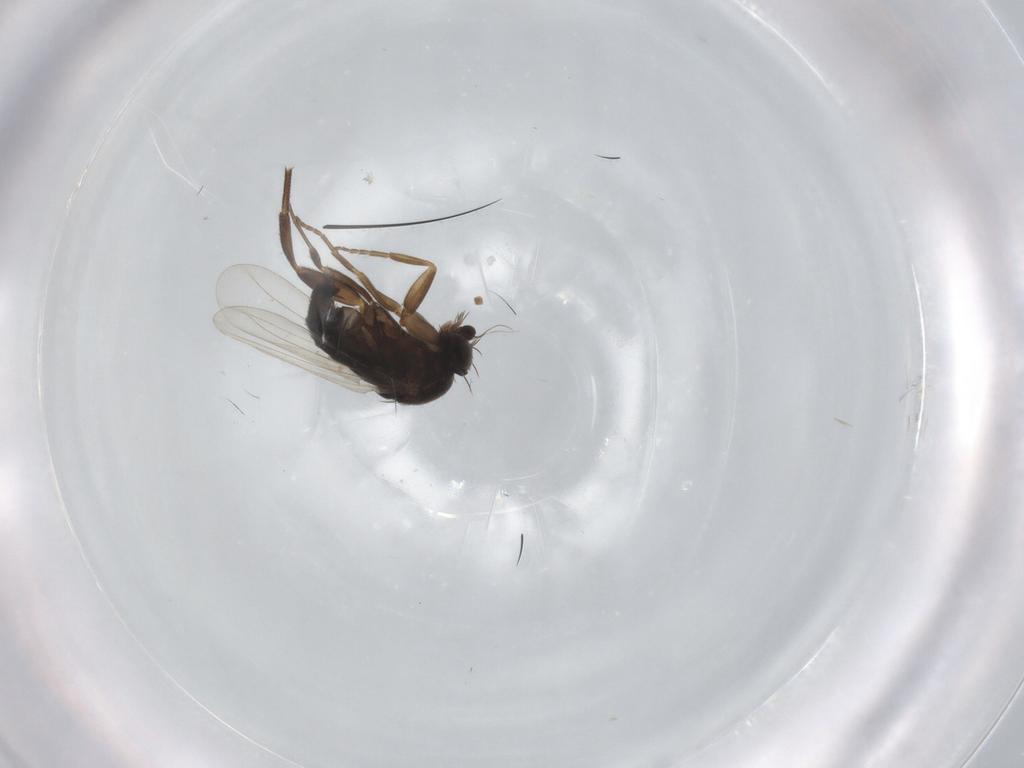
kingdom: Animalia
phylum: Arthropoda
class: Insecta
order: Diptera
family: Phoridae
